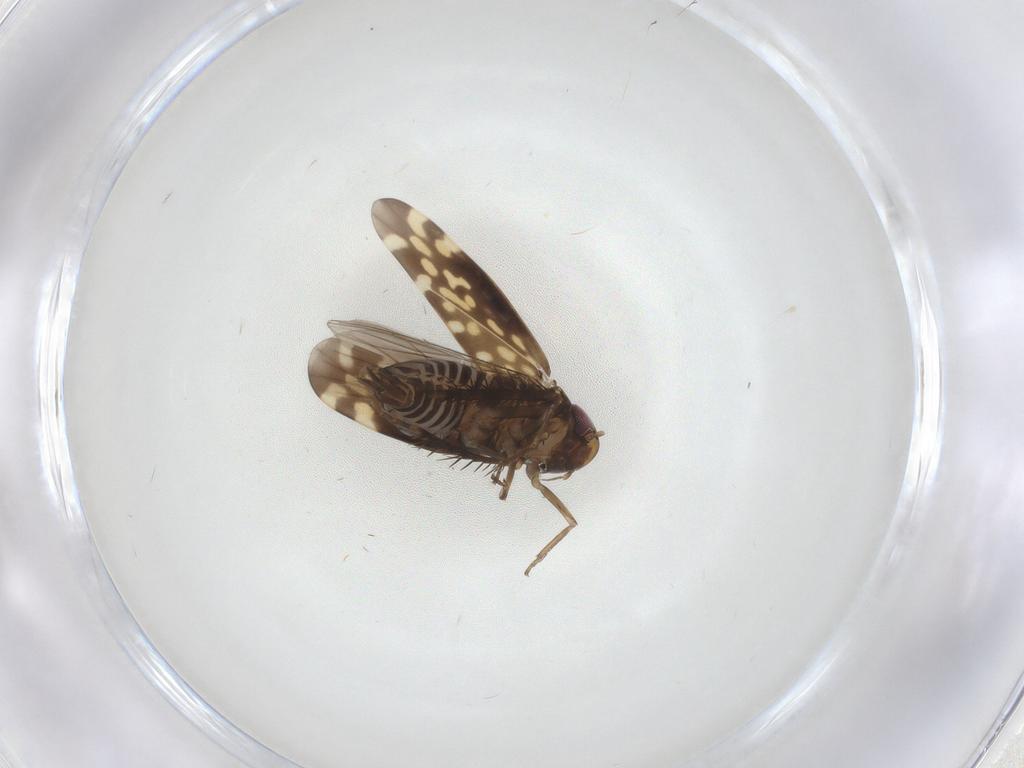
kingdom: Animalia
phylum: Arthropoda
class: Insecta
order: Hemiptera
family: Cicadellidae
